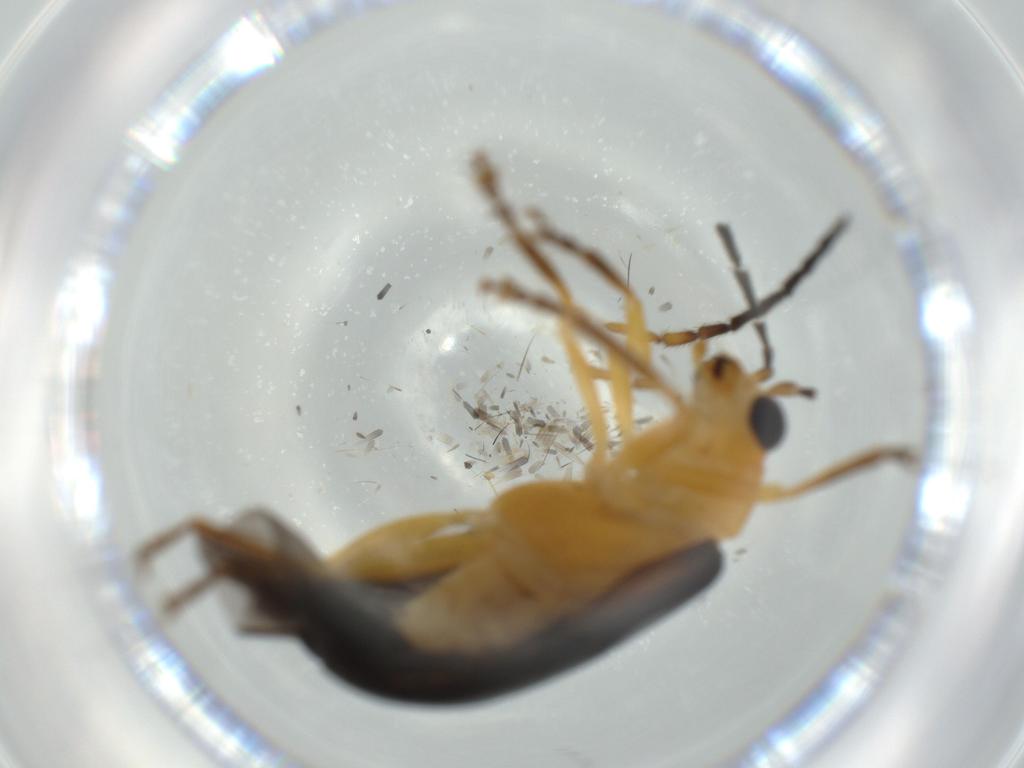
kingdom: Animalia
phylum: Arthropoda
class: Insecta
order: Coleoptera
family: Chrysomelidae
